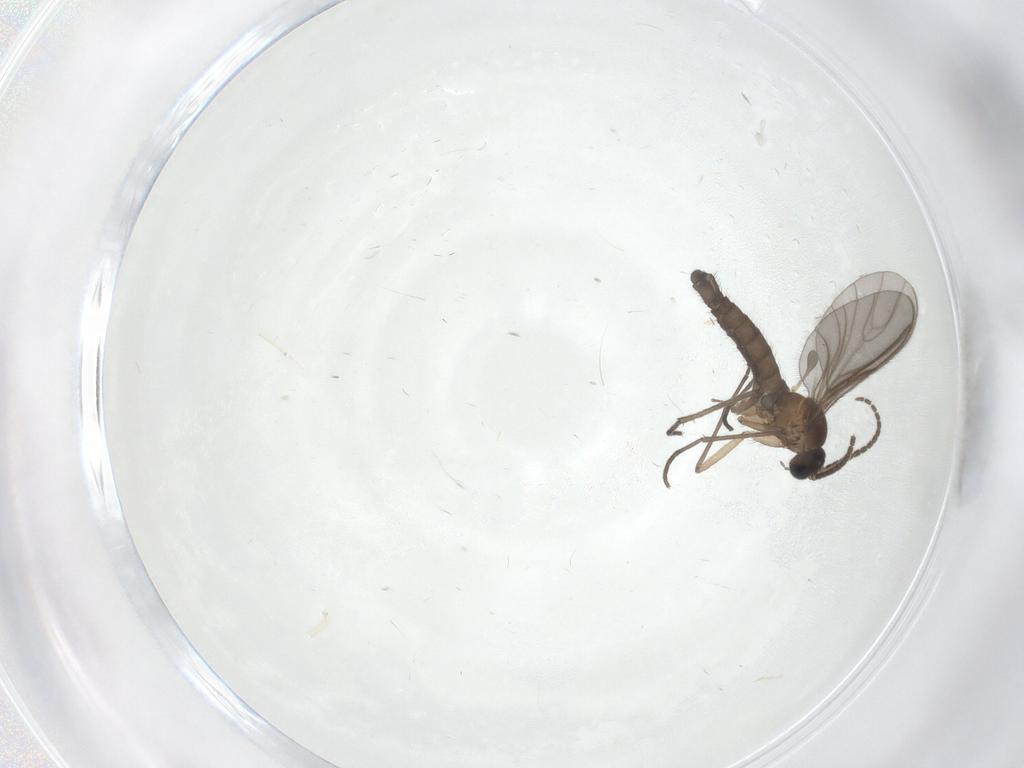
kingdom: Animalia
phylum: Arthropoda
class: Insecta
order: Diptera
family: Sciaridae
